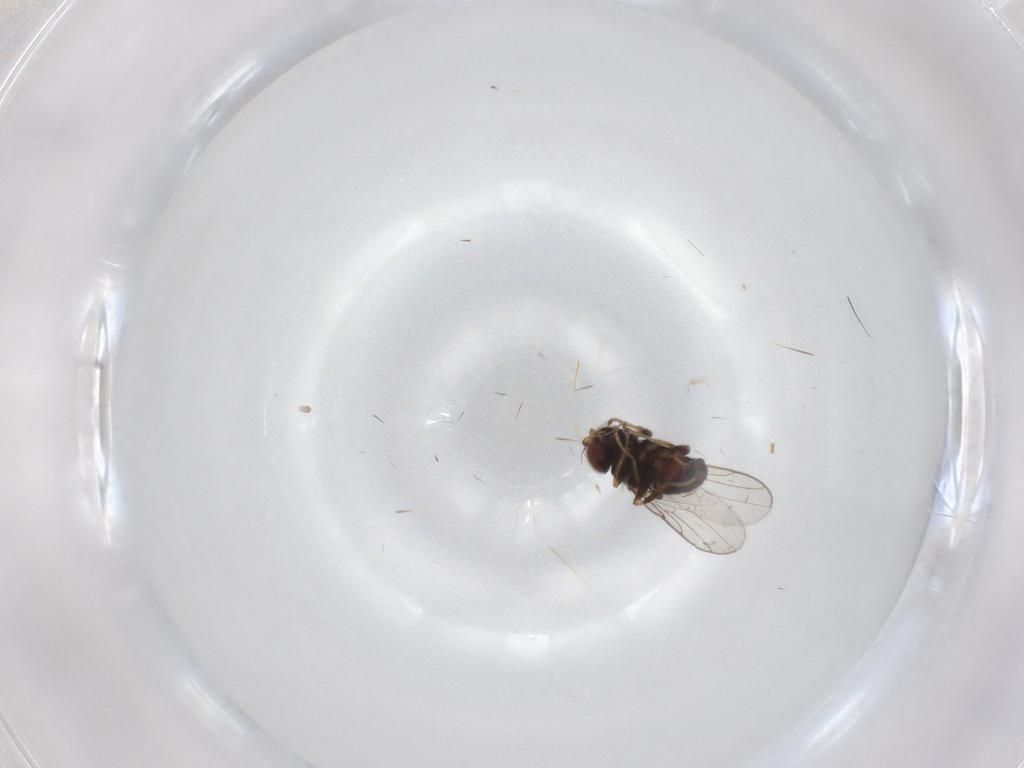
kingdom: Animalia
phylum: Arthropoda
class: Insecta
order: Diptera
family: Chloropidae
